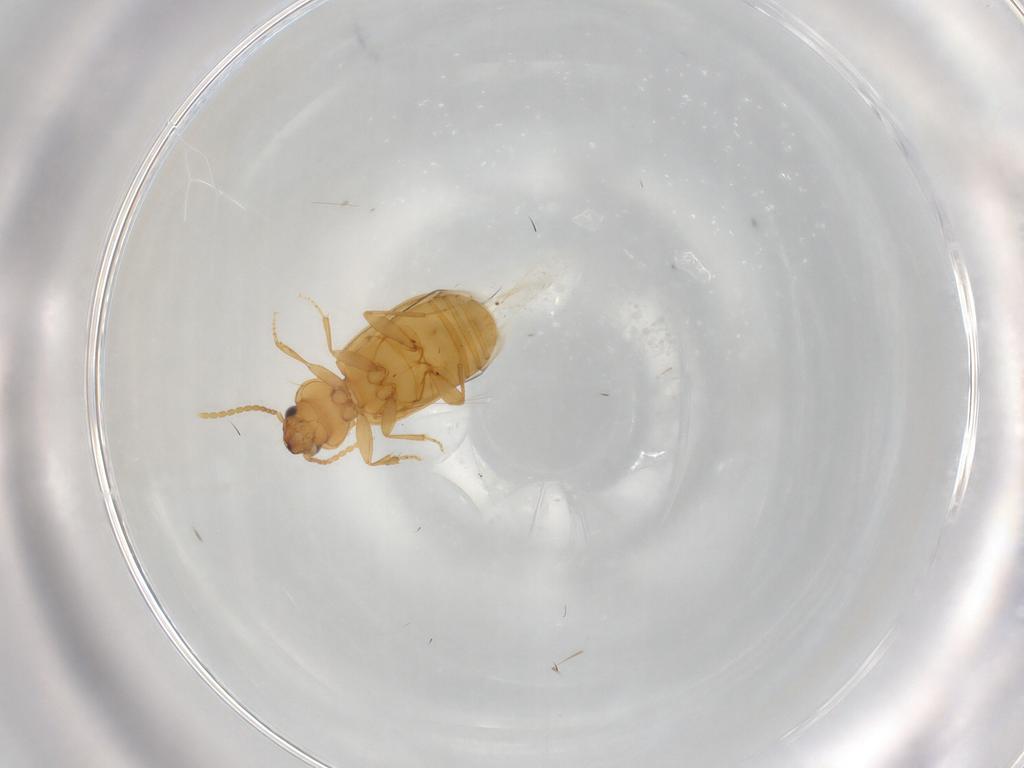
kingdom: Animalia
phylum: Arthropoda
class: Insecta
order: Coleoptera
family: Carabidae
